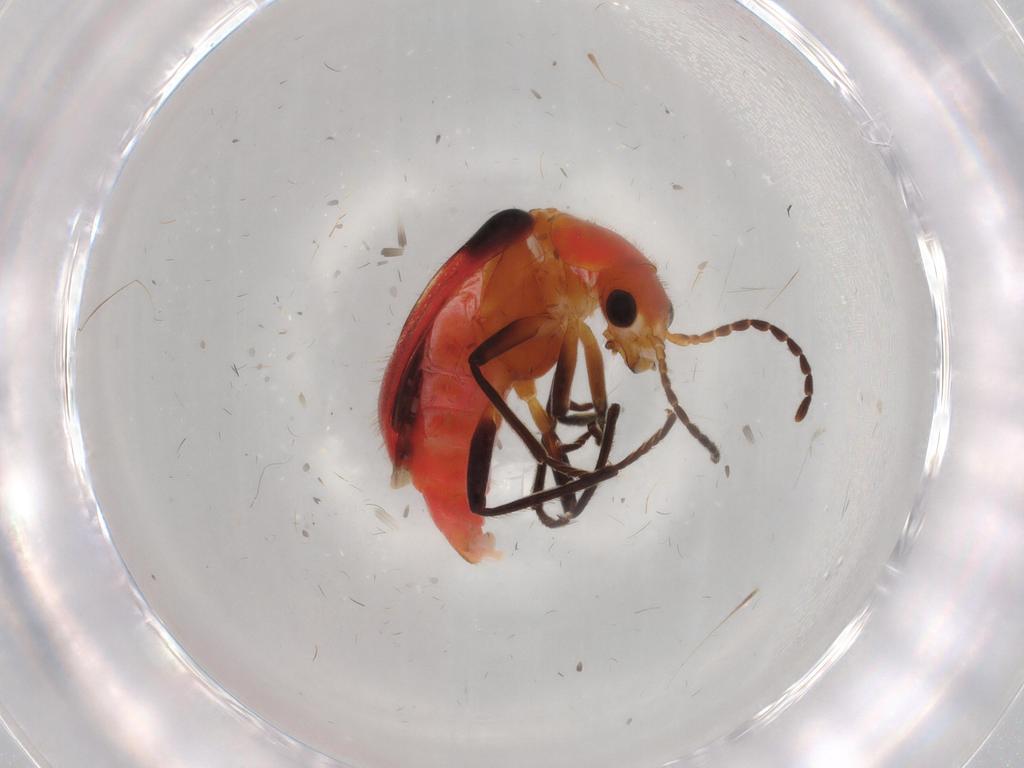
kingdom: Animalia
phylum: Arthropoda
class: Insecta
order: Coleoptera
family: Melyridae
